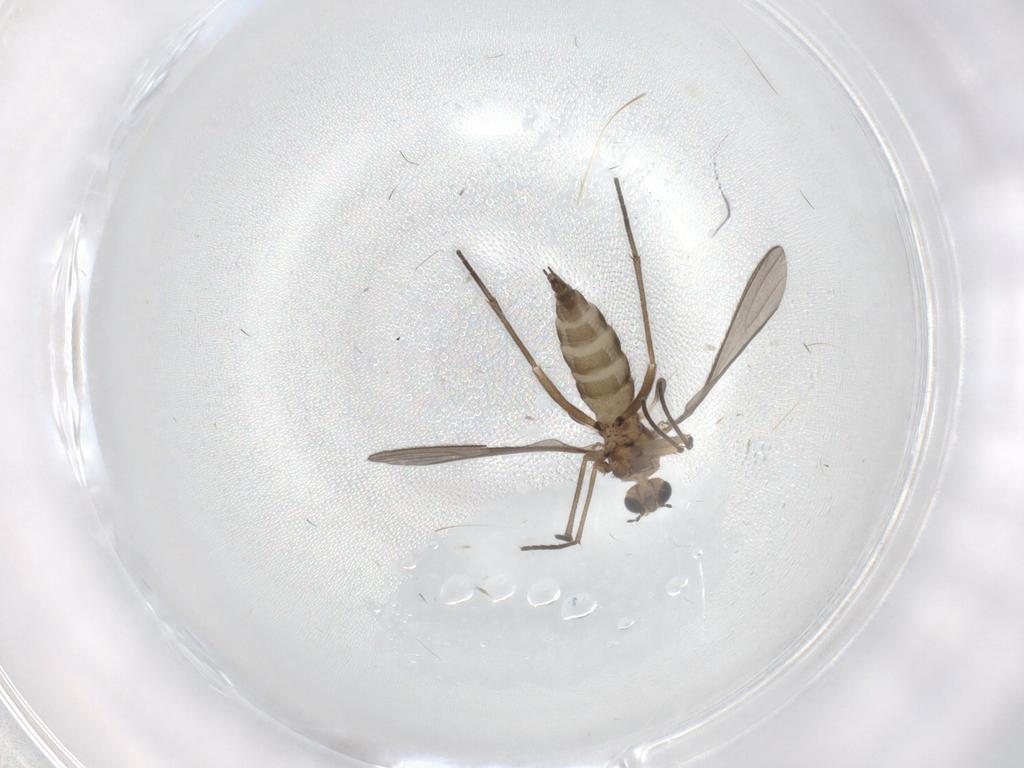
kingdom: Animalia
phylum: Arthropoda
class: Insecta
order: Diptera
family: Sciaridae
